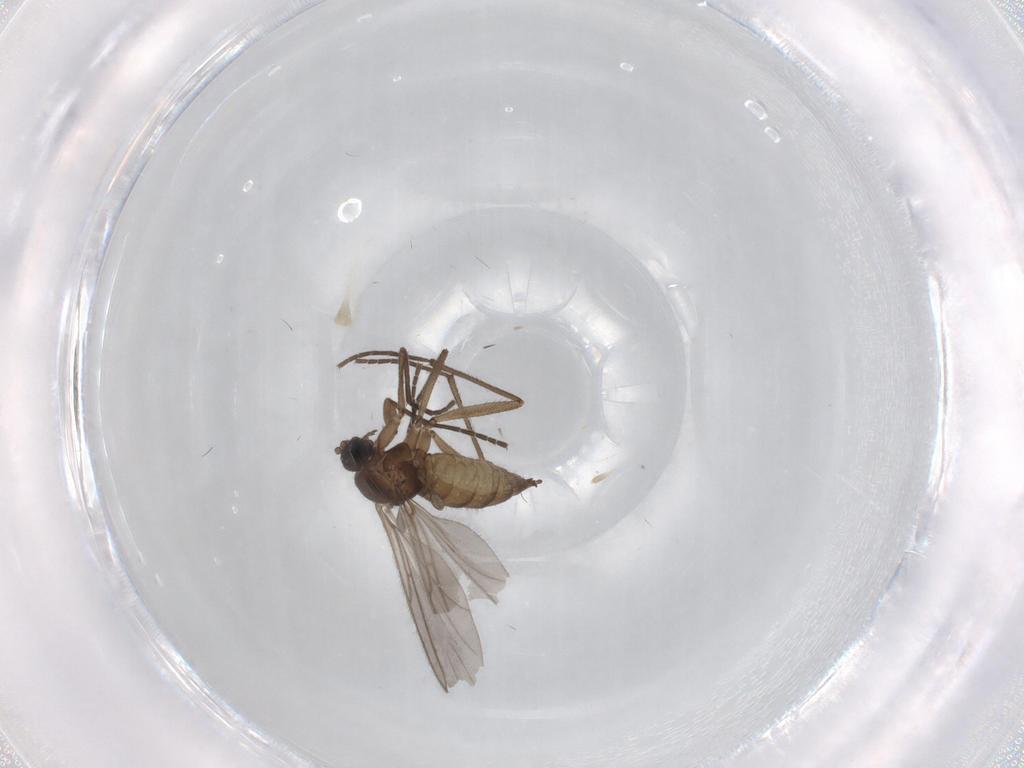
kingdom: Animalia
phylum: Arthropoda
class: Insecta
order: Diptera
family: Sciaridae
